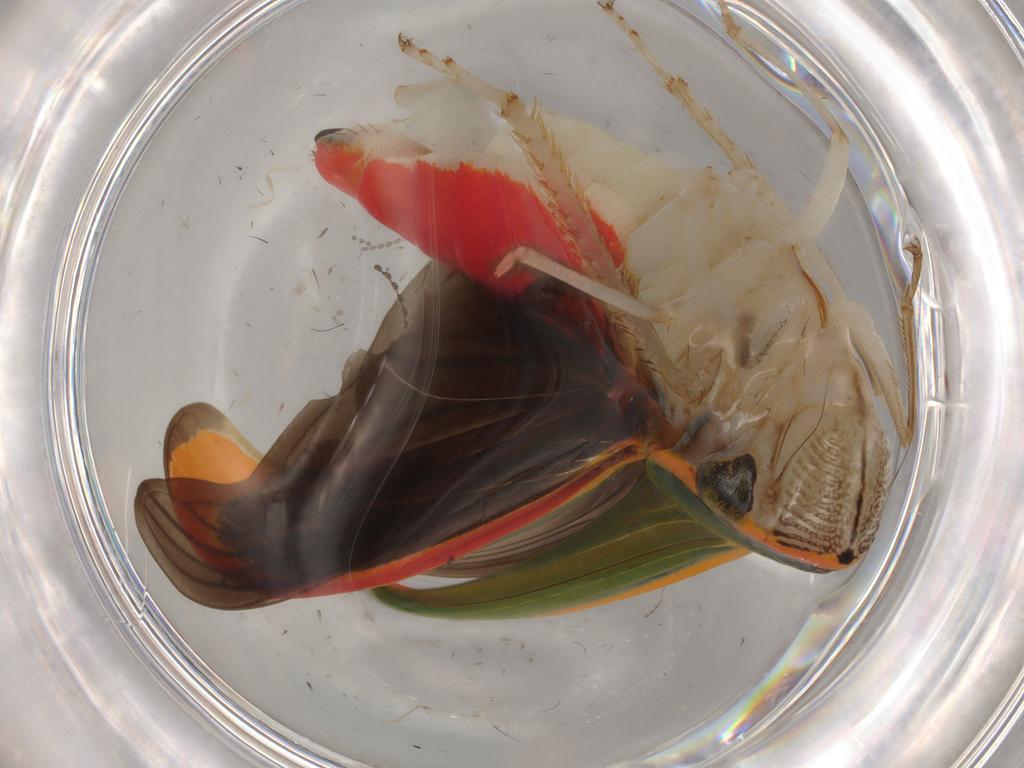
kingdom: Animalia
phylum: Arthropoda
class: Insecta
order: Hemiptera
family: Cicadellidae
